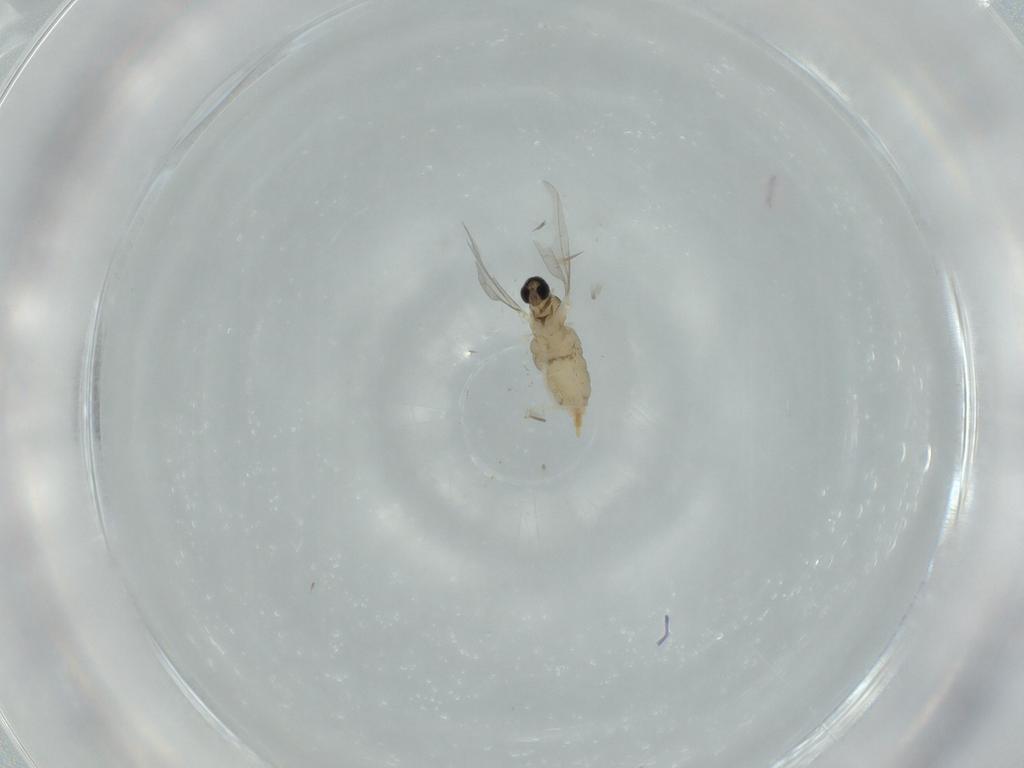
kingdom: Animalia
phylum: Arthropoda
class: Insecta
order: Diptera
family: Cecidomyiidae
